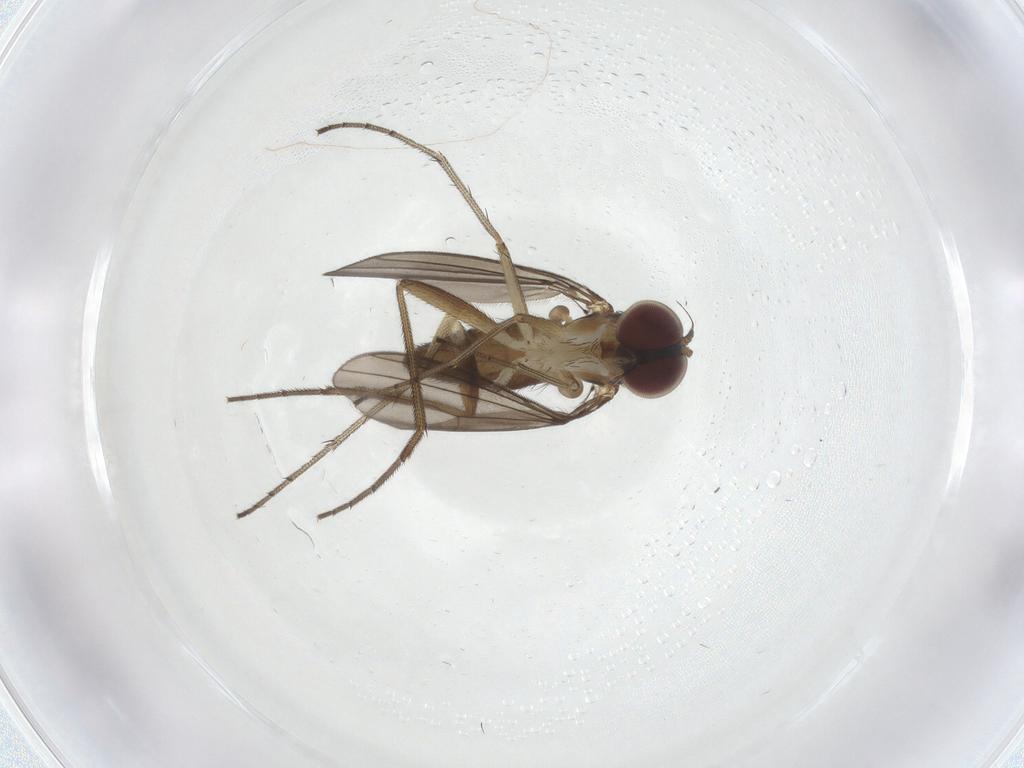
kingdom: Animalia
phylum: Arthropoda
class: Insecta
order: Diptera
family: Dolichopodidae
